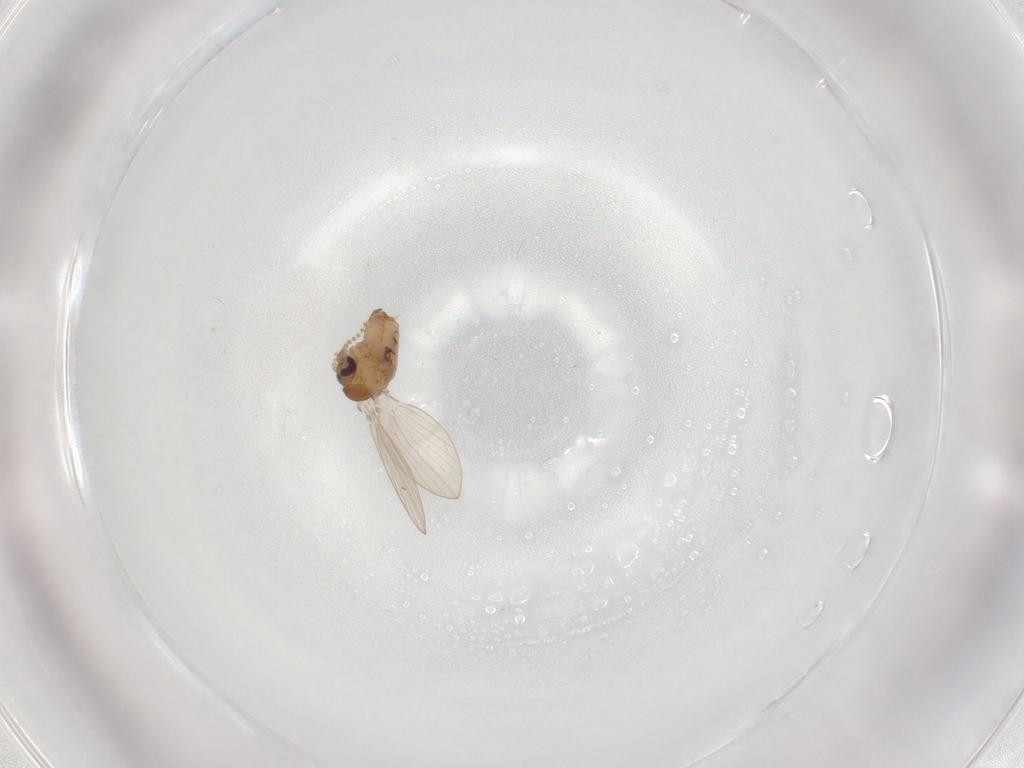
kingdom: Animalia
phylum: Arthropoda
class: Insecta
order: Diptera
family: Psychodidae
